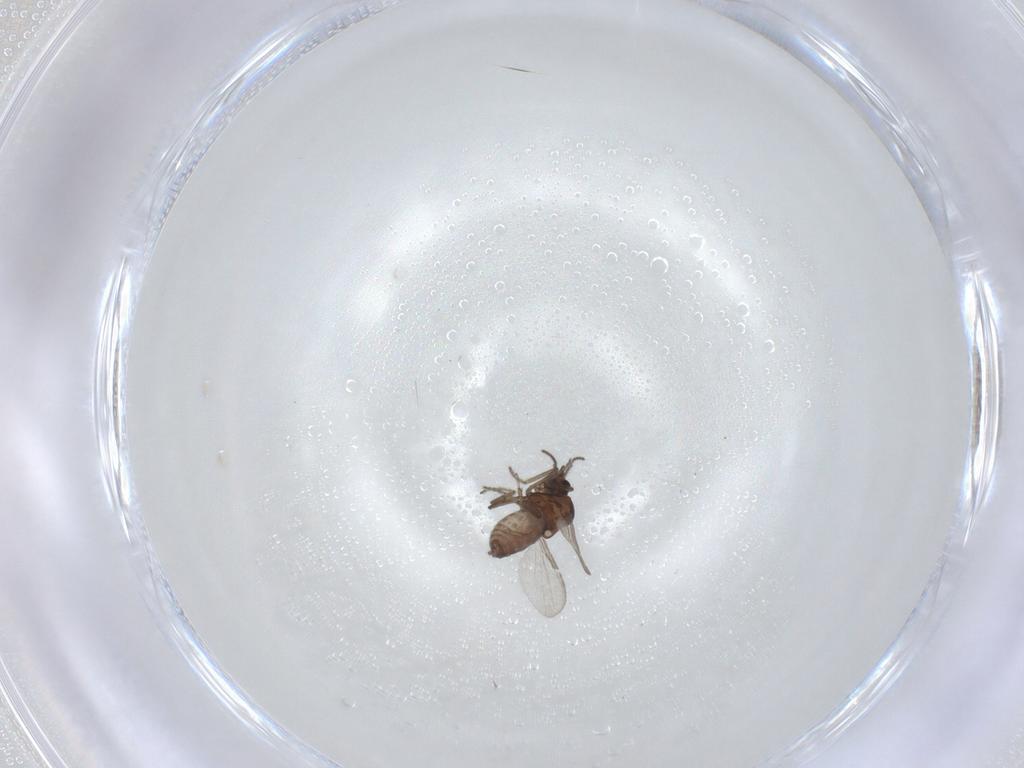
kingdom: Animalia
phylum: Arthropoda
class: Insecta
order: Diptera
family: Ceratopogonidae
